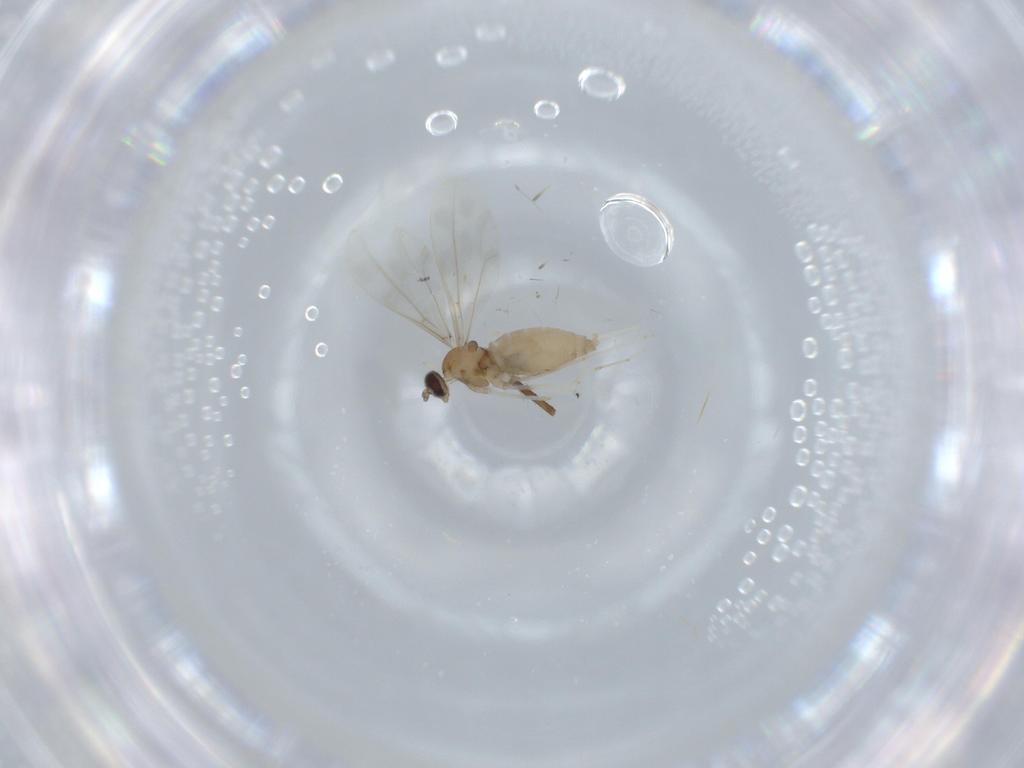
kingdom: Animalia
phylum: Arthropoda
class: Insecta
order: Diptera
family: Cecidomyiidae
